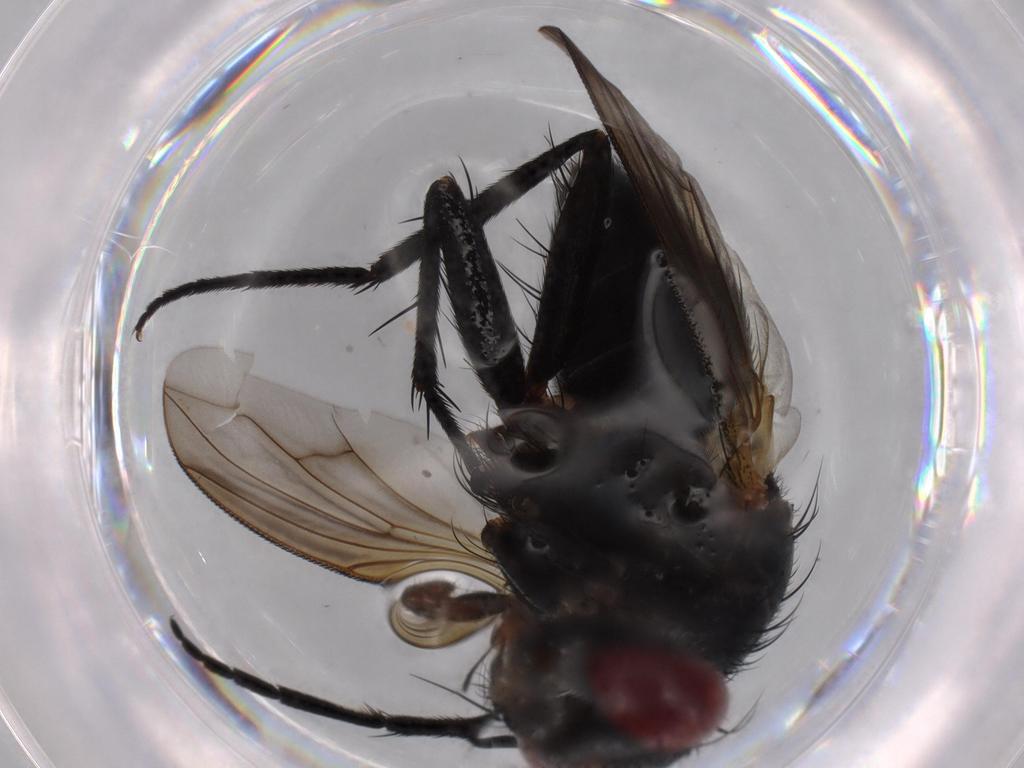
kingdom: Animalia
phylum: Arthropoda
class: Insecta
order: Diptera
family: Phoridae
